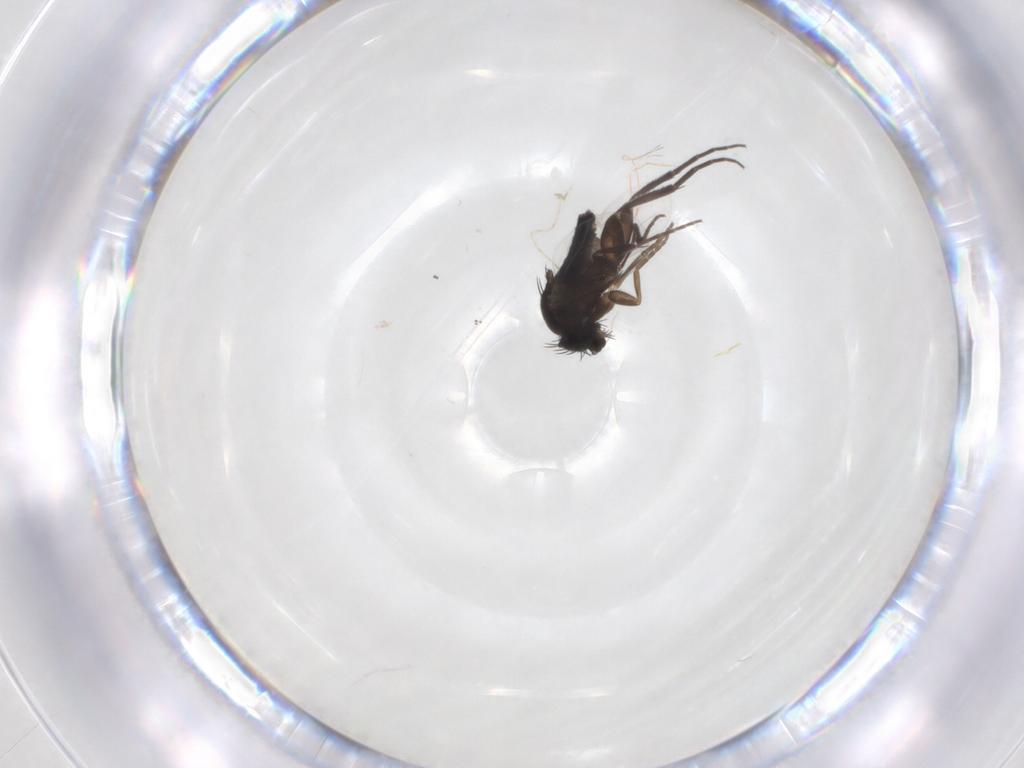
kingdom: Animalia
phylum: Arthropoda
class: Insecta
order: Diptera
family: Phoridae
